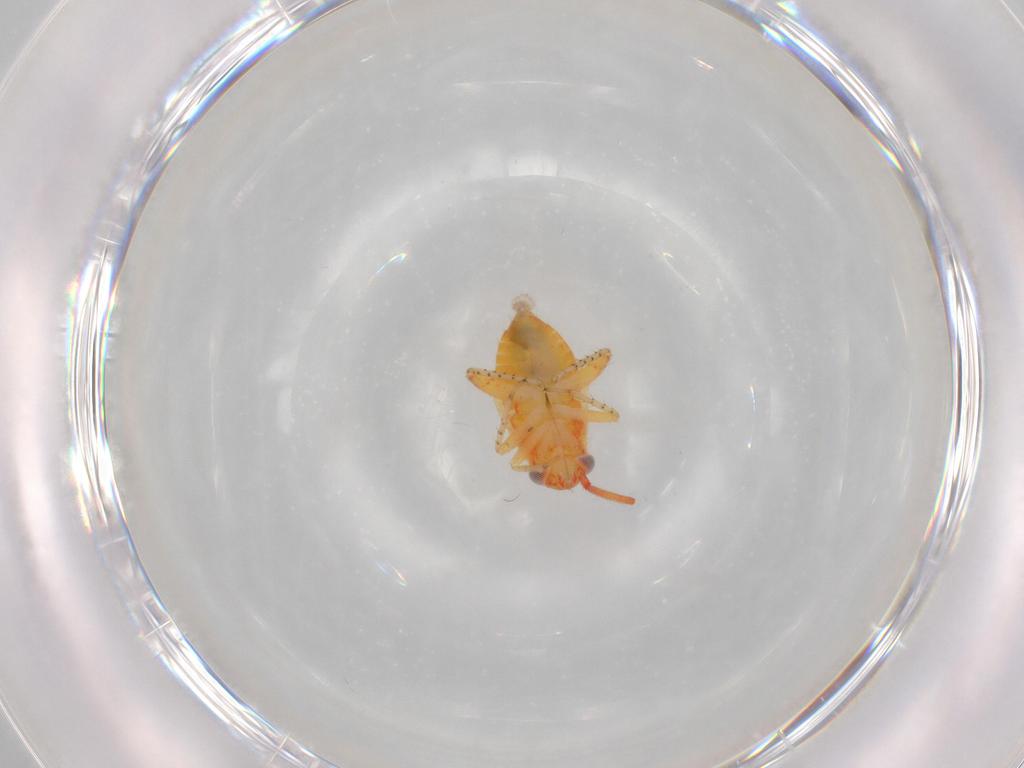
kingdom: Animalia
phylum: Arthropoda
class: Insecta
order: Hemiptera
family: Miridae
